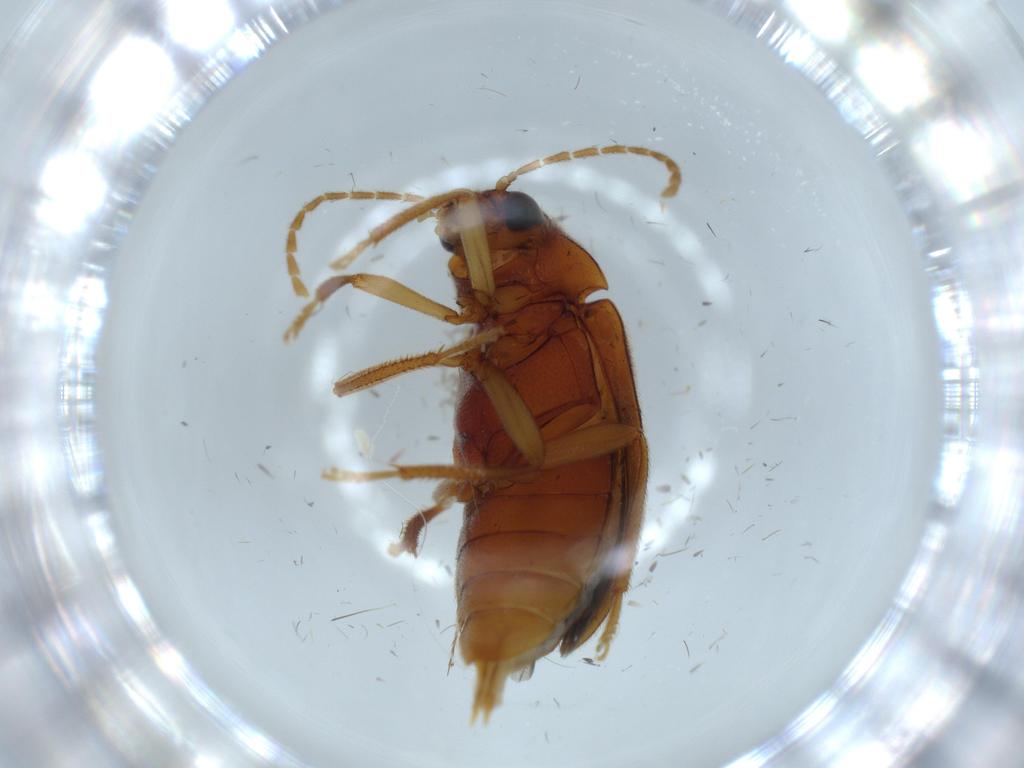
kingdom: Animalia
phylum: Arthropoda
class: Insecta
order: Coleoptera
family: Ptilodactylidae
